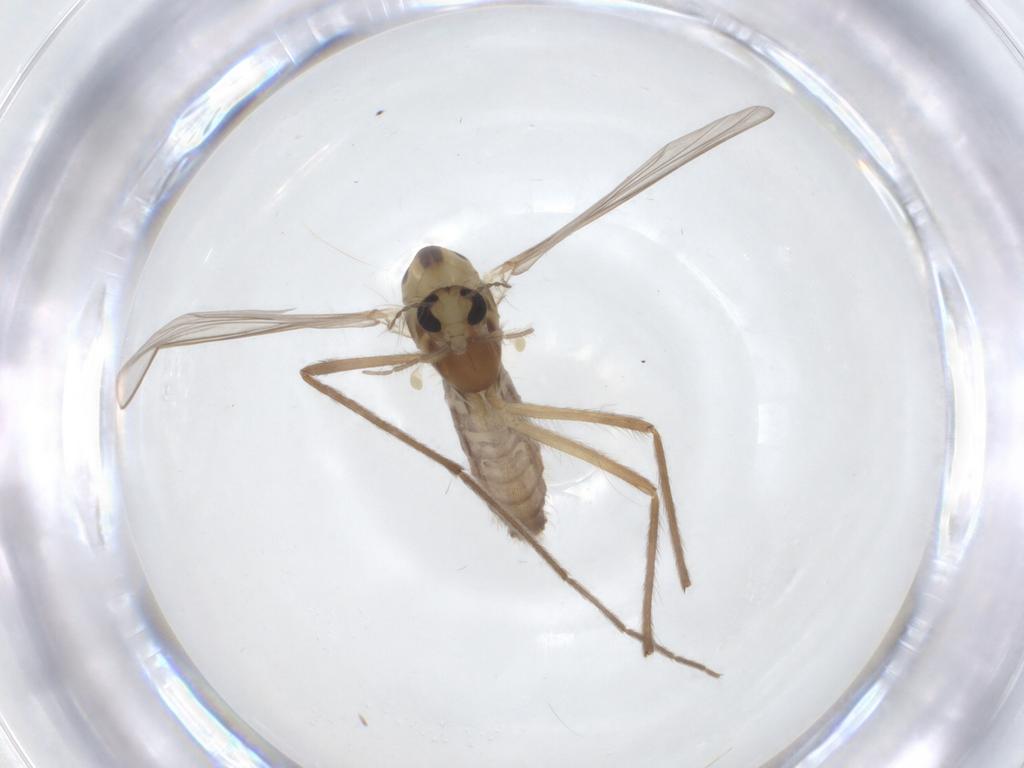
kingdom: Animalia
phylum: Arthropoda
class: Insecta
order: Diptera
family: Chironomidae
